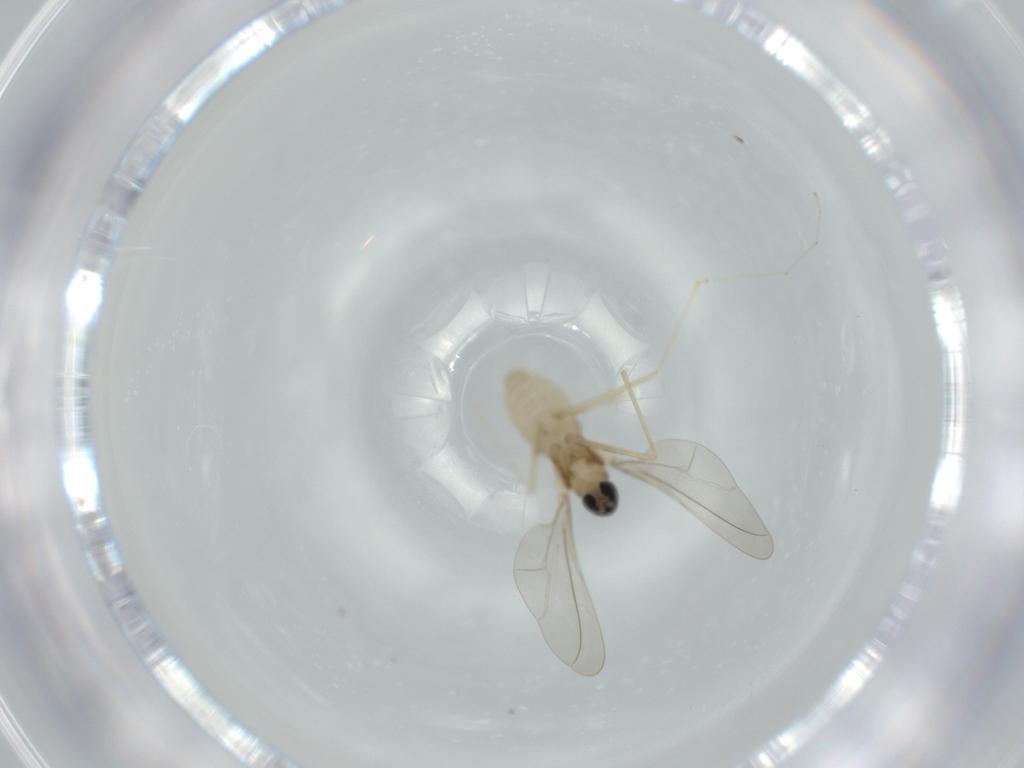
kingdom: Animalia
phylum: Arthropoda
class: Insecta
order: Diptera
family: Cecidomyiidae
